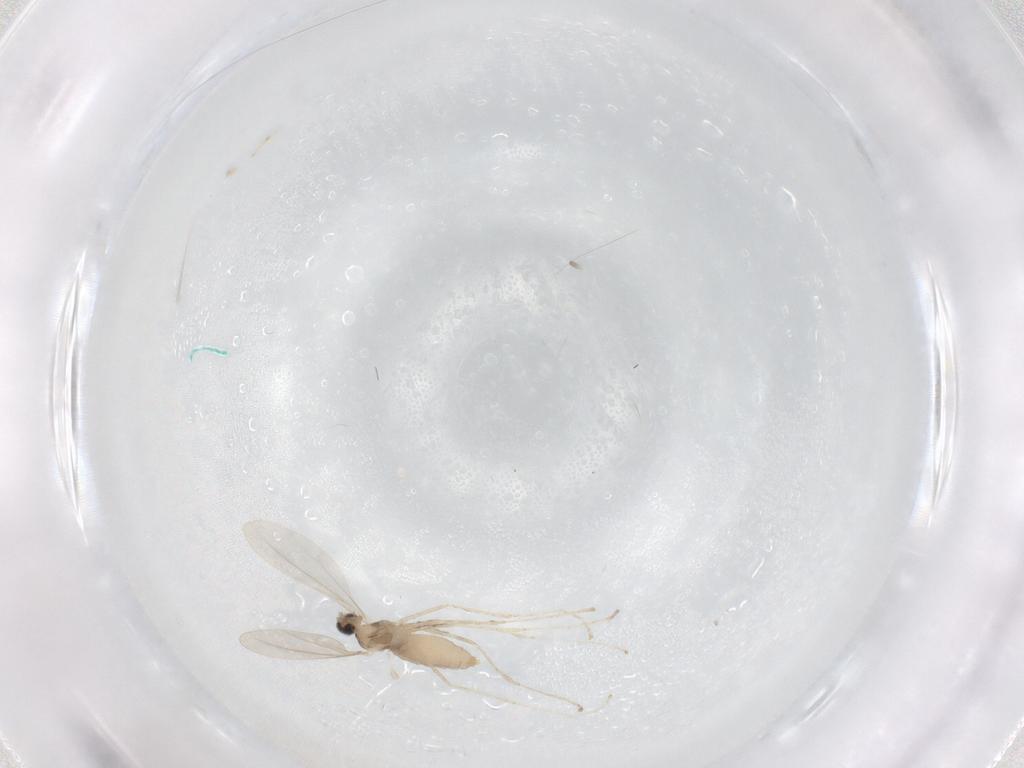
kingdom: Animalia
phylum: Arthropoda
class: Insecta
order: Diptera
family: Cecidomyiidae
